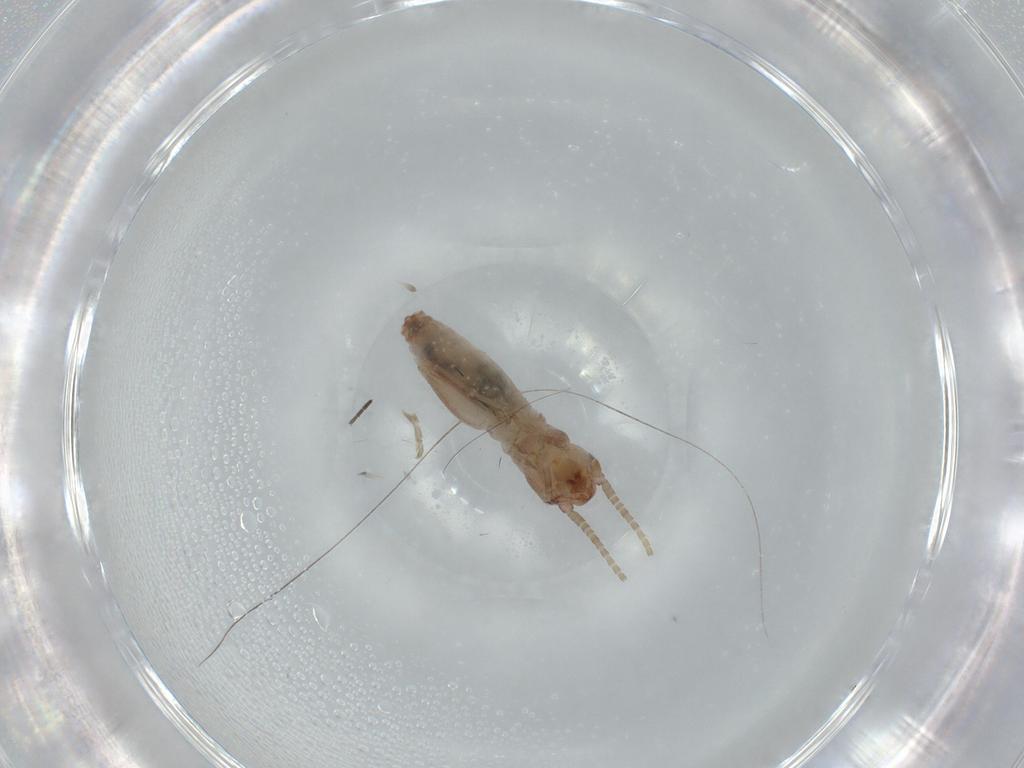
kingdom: Animalia
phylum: Arthropoda
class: Insecta
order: Orthoptera
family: Mogoplistidae
